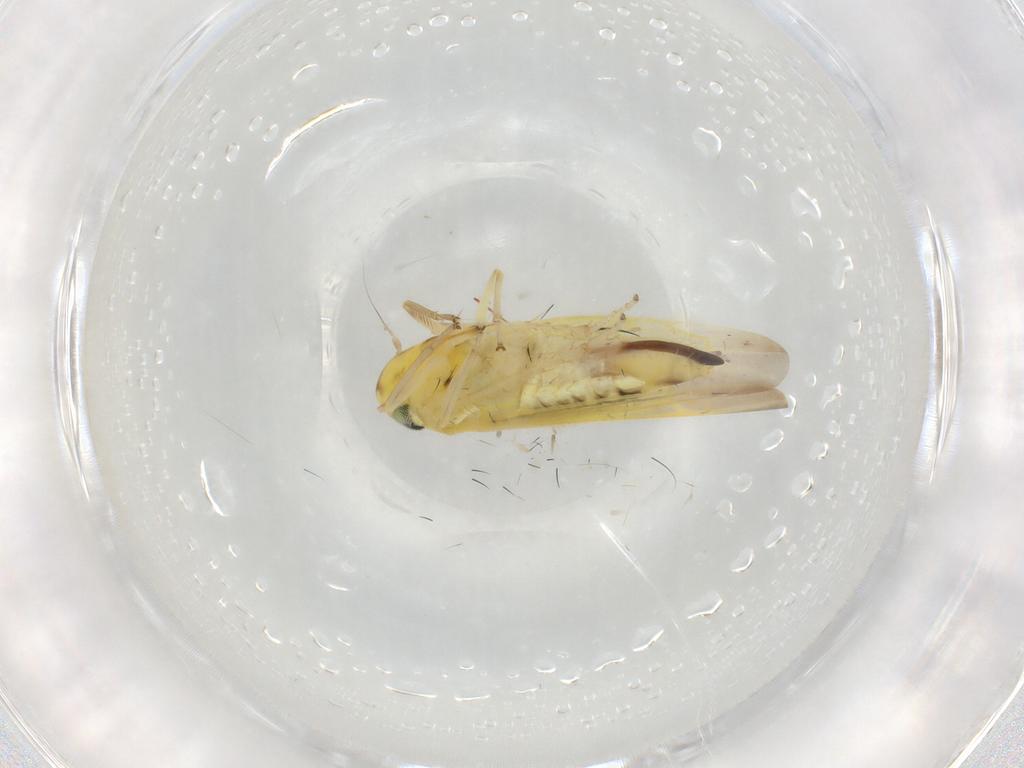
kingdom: Animalia
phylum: Arthropoda
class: Insecta
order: Hemiptera
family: Cicadellidae
